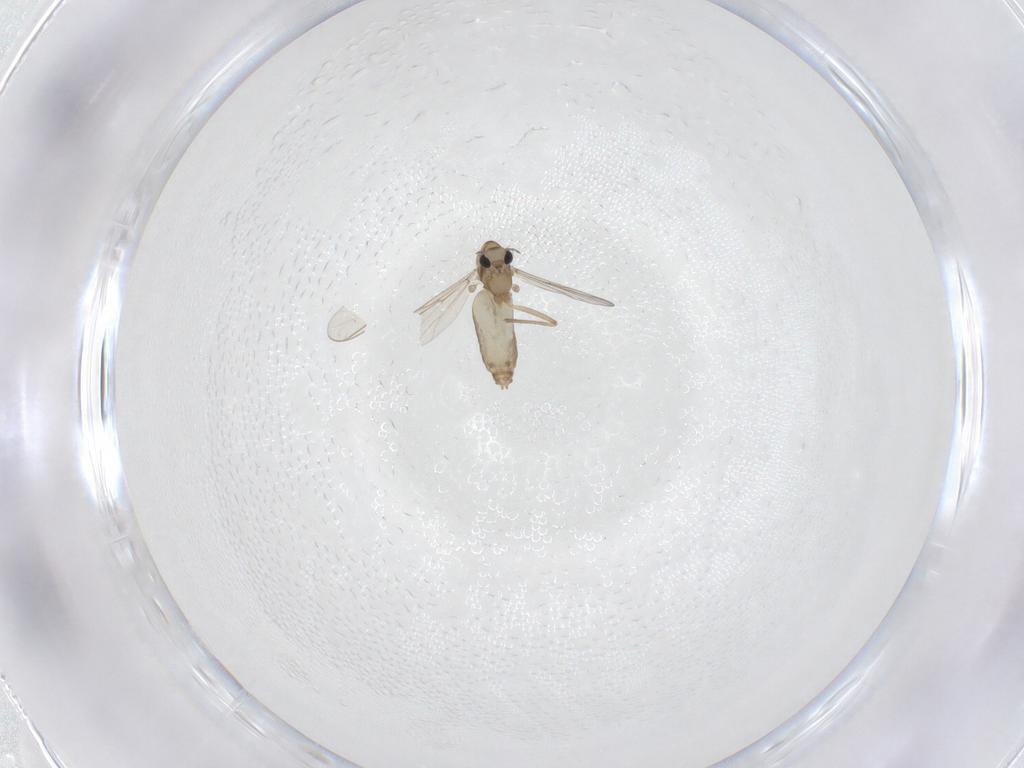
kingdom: Animalia
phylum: Arthropoda
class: Insecta
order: Diptera
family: Chironomidae
